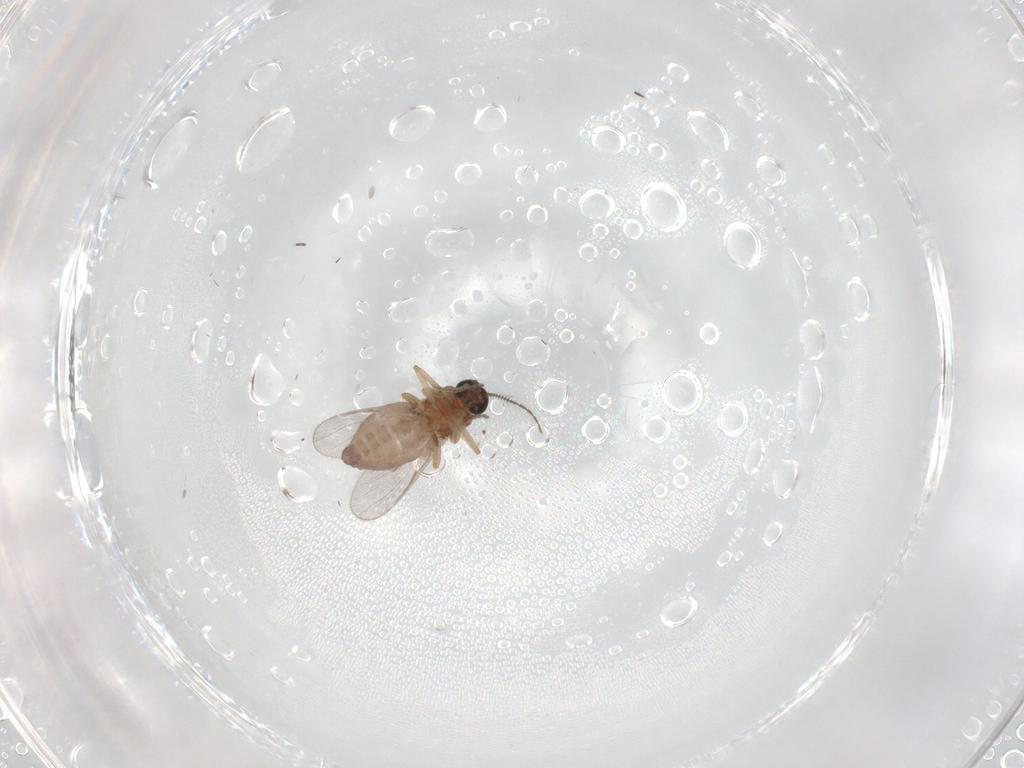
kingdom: Animalia
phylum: Arthropoda
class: Insecta
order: Diptera
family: Ceratopogonidae
